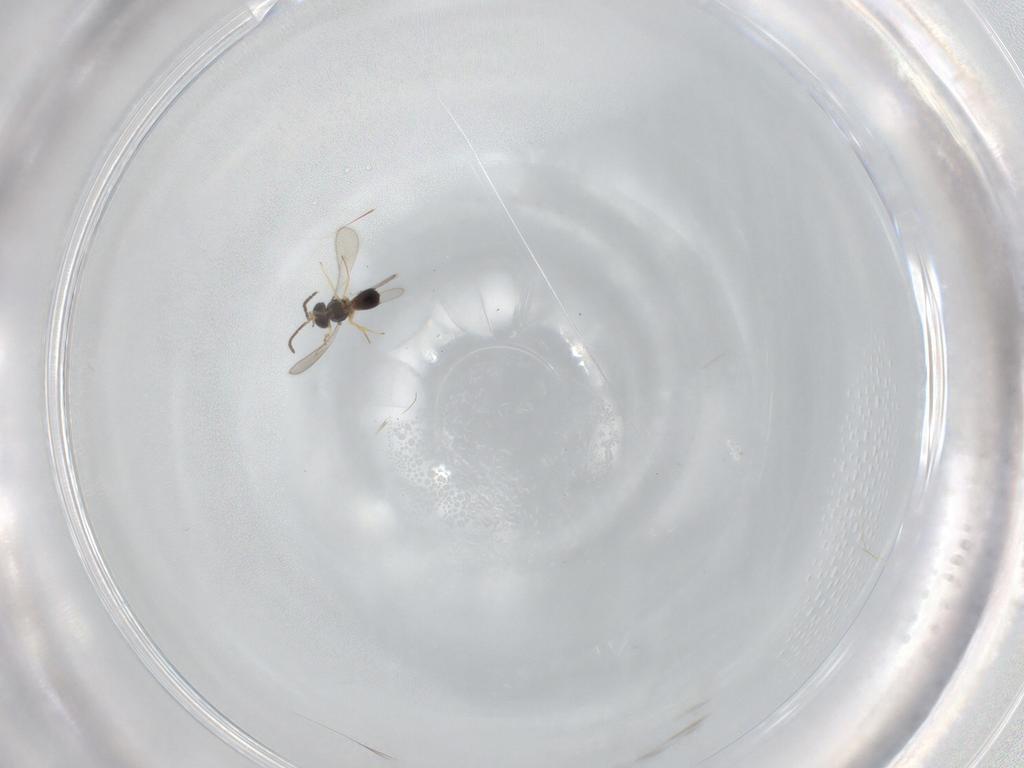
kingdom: Animalia
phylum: Arthropoda
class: Insecta
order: Hymenoptera
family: Scelionidae
